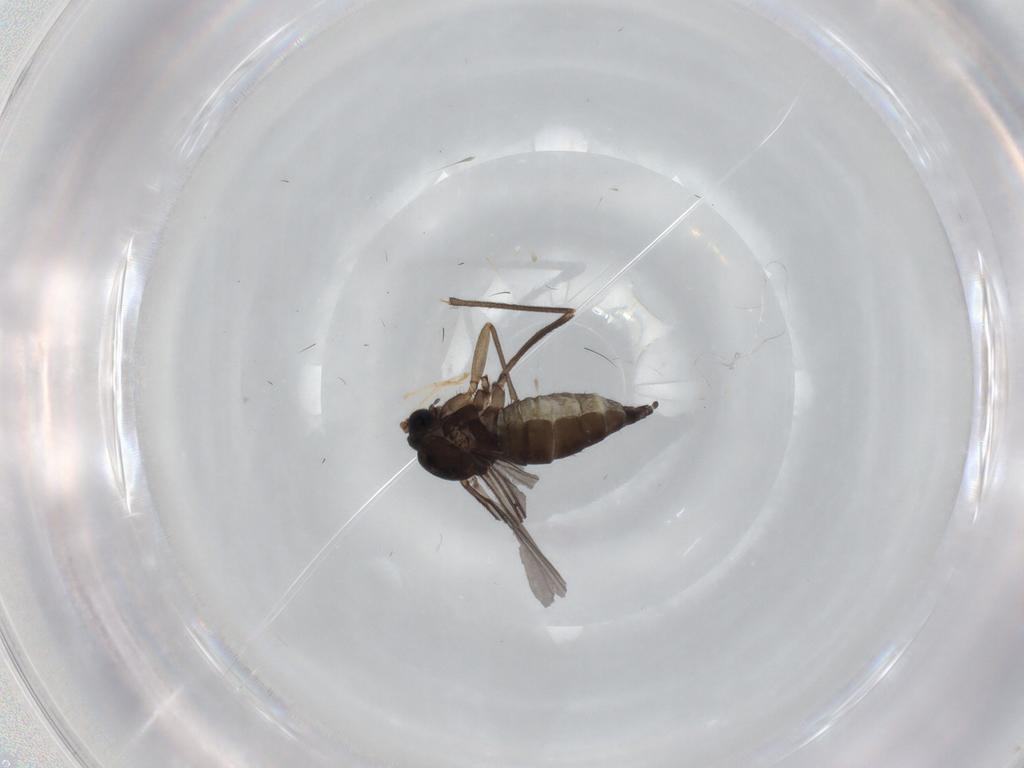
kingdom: Animalia
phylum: Arthropoda
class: Insecta
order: Diptera
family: Sciaridae
